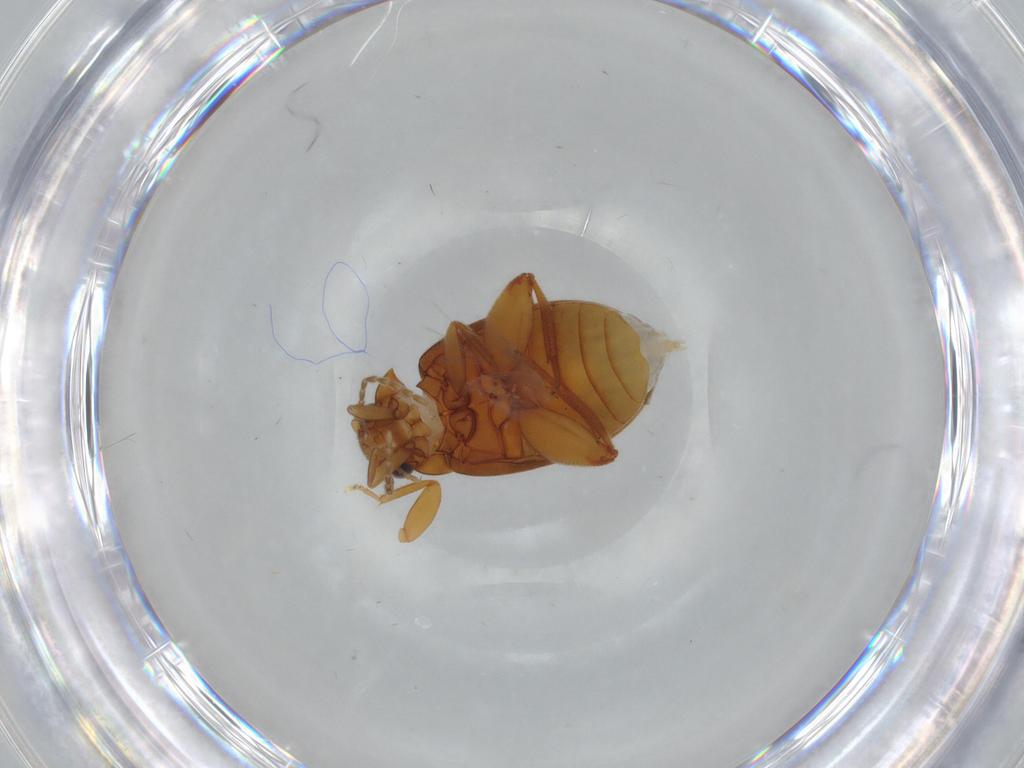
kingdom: Animalia
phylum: Arthropoda
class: Insecta
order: Coleoptera
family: Scirtidae
